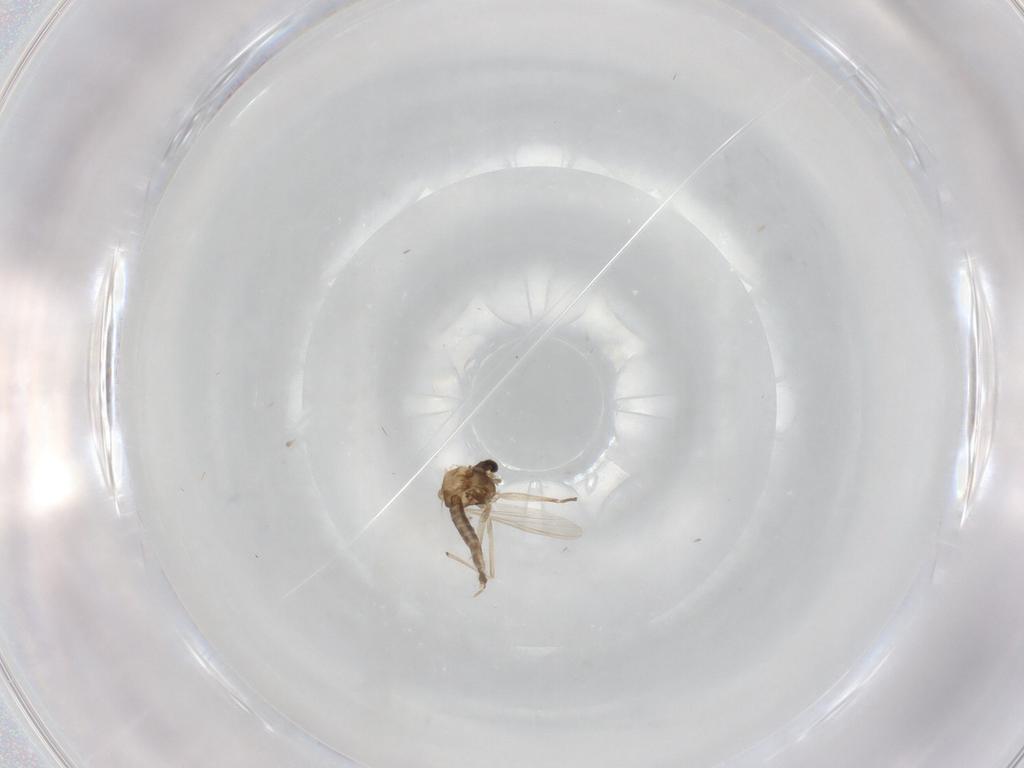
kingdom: Animalia
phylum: Arthropoda
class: Insecta
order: Diptera
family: Chironomidae
